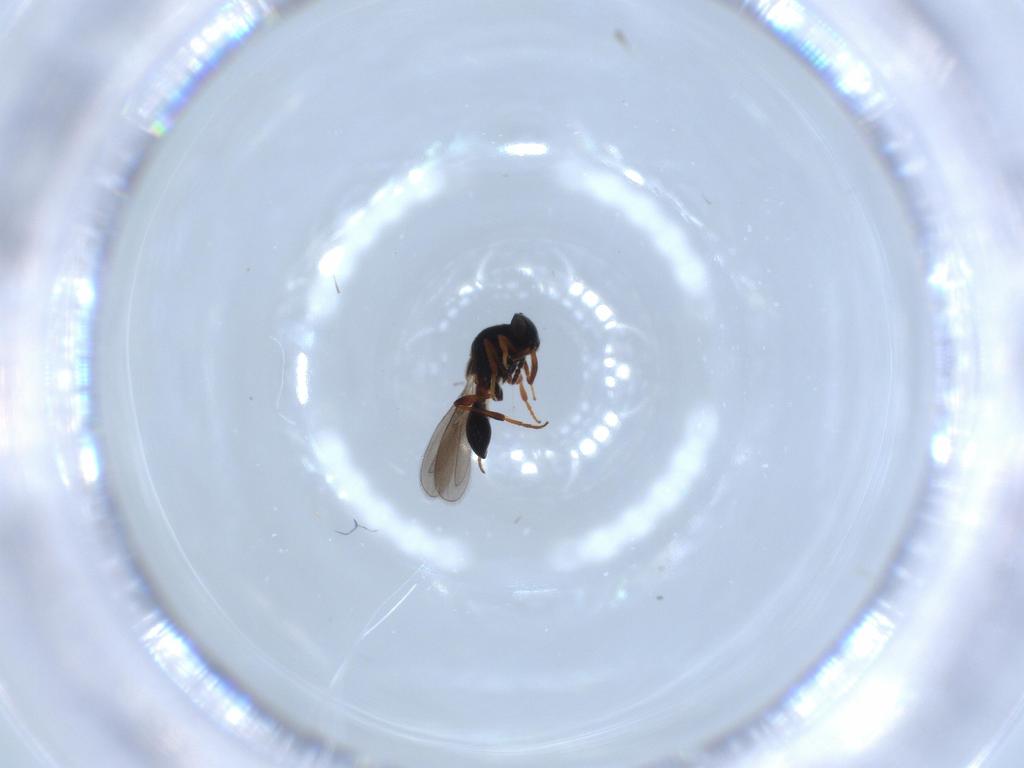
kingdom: Animalia
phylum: Arthropoda
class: Insecta
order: Hymenoptera
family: Platygastridae
